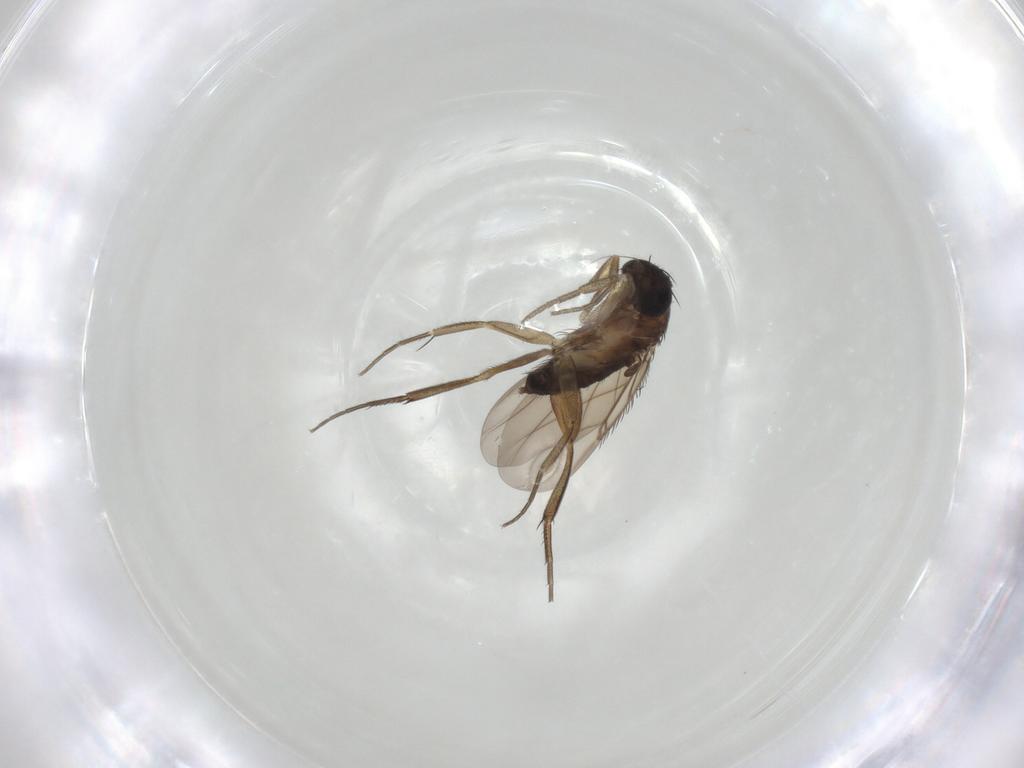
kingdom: Animalia
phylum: Arthropoda
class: Insecta
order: Diptera
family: Phoridae
